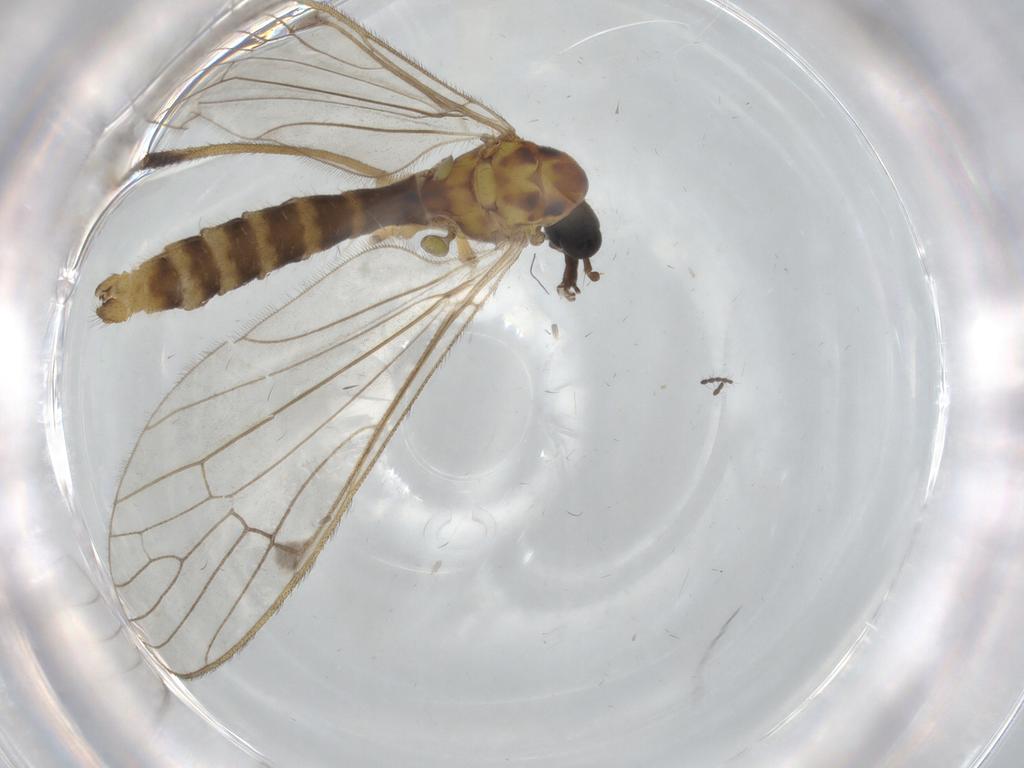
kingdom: Animalia
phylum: Arthropoda
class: Insecta
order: Diptera
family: Limoniidae
